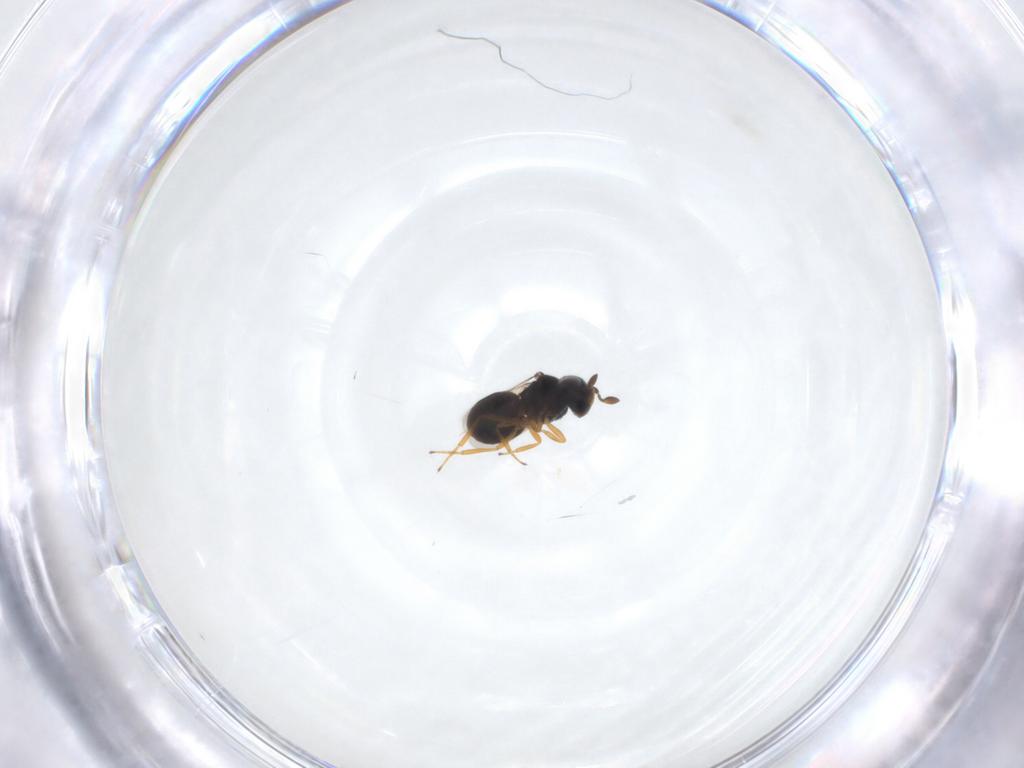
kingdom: Animalia
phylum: Arthropoda
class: Insecta
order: Hymenoptera
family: Scelionidae
